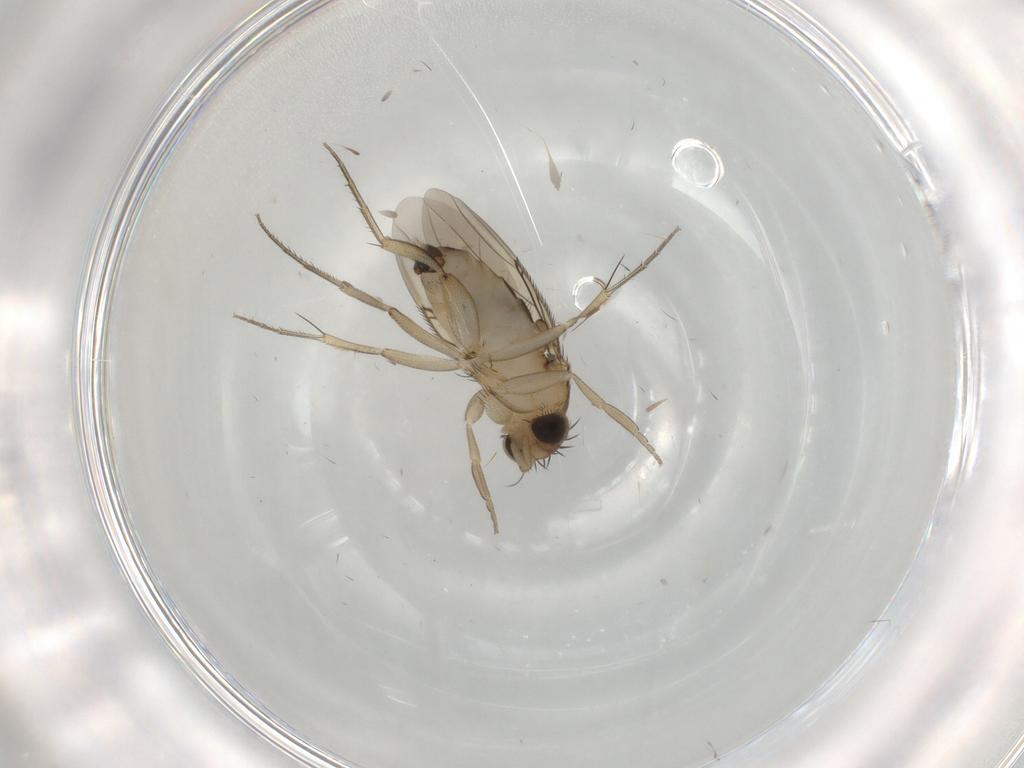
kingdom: Animalia
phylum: Arthropoda
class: Insecta
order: Diptera
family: Phoridae
